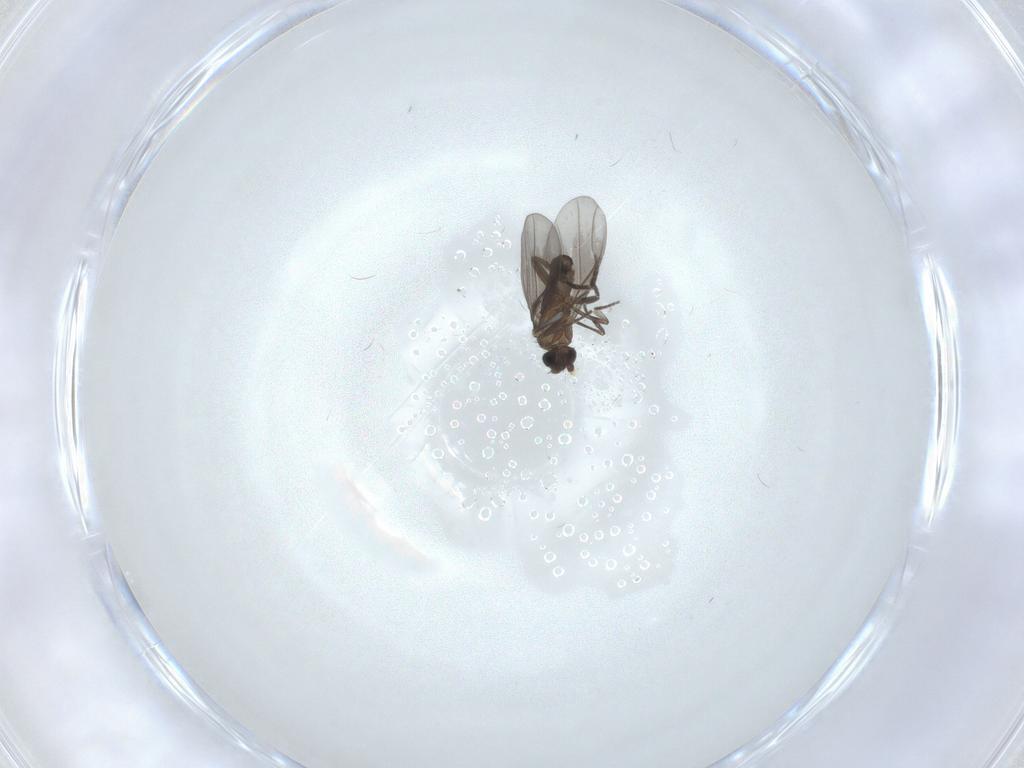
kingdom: Animalia
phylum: Arthropoda
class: Insecta
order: Diptera
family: Phoridae
